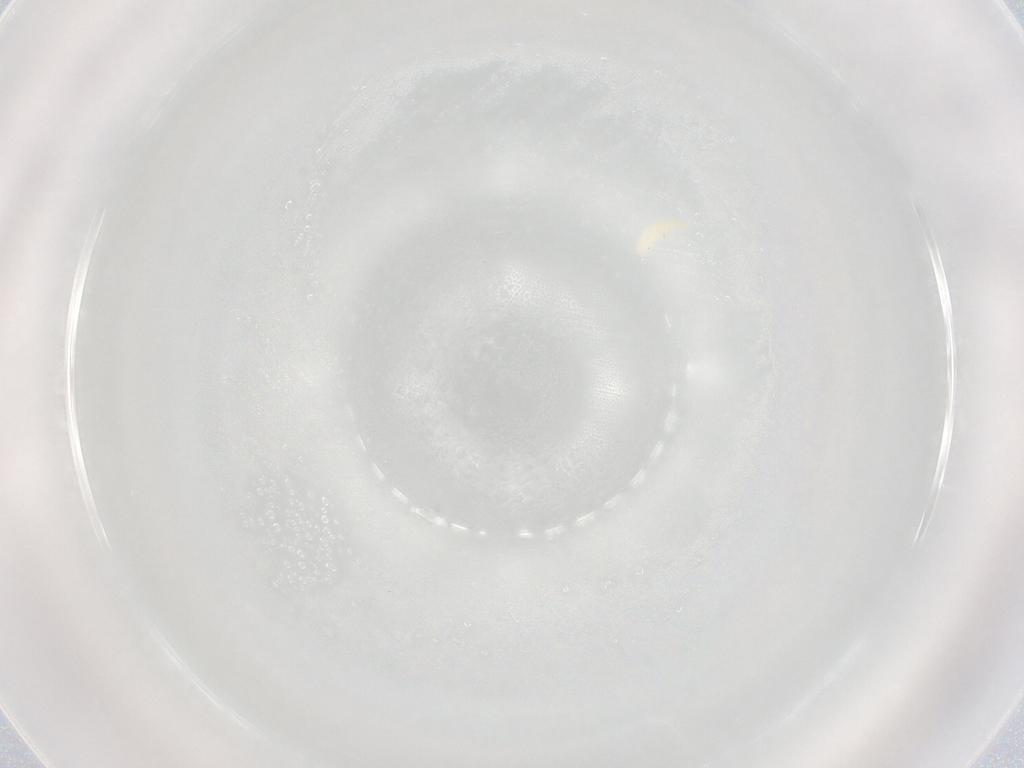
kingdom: Animalia
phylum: Arthropoda
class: Collembola
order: Poduromorpha
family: Onychiuridae
